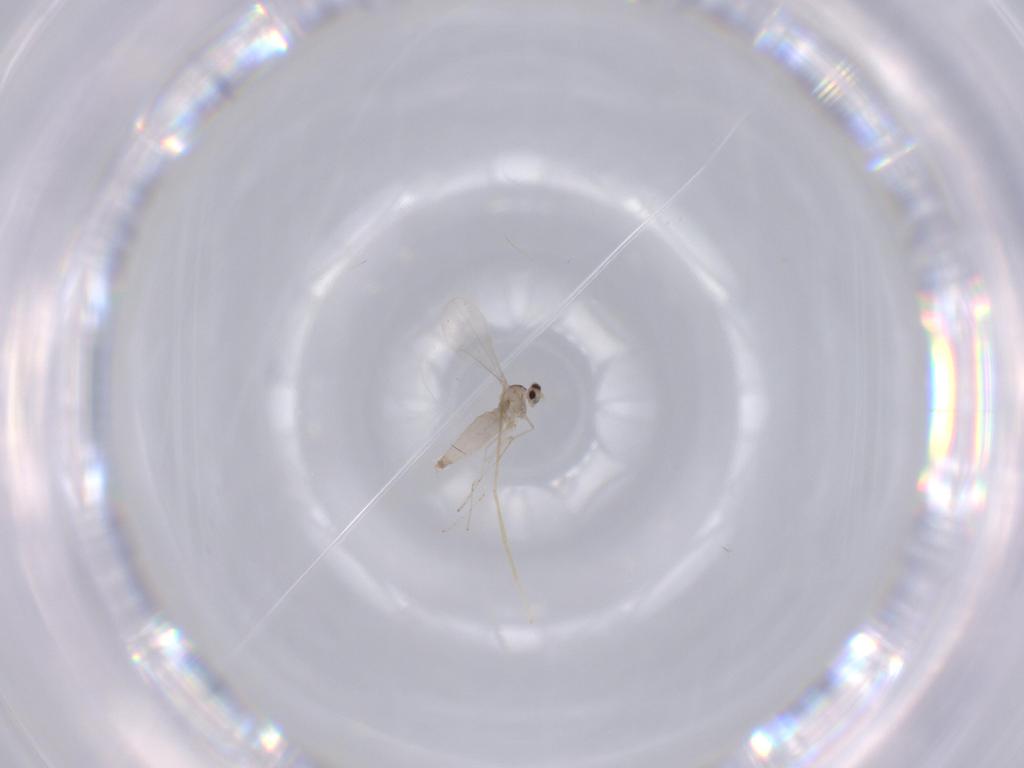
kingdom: Animalia
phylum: Arthropoda
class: Insecta
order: Diptera
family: Cecidomyiidae
